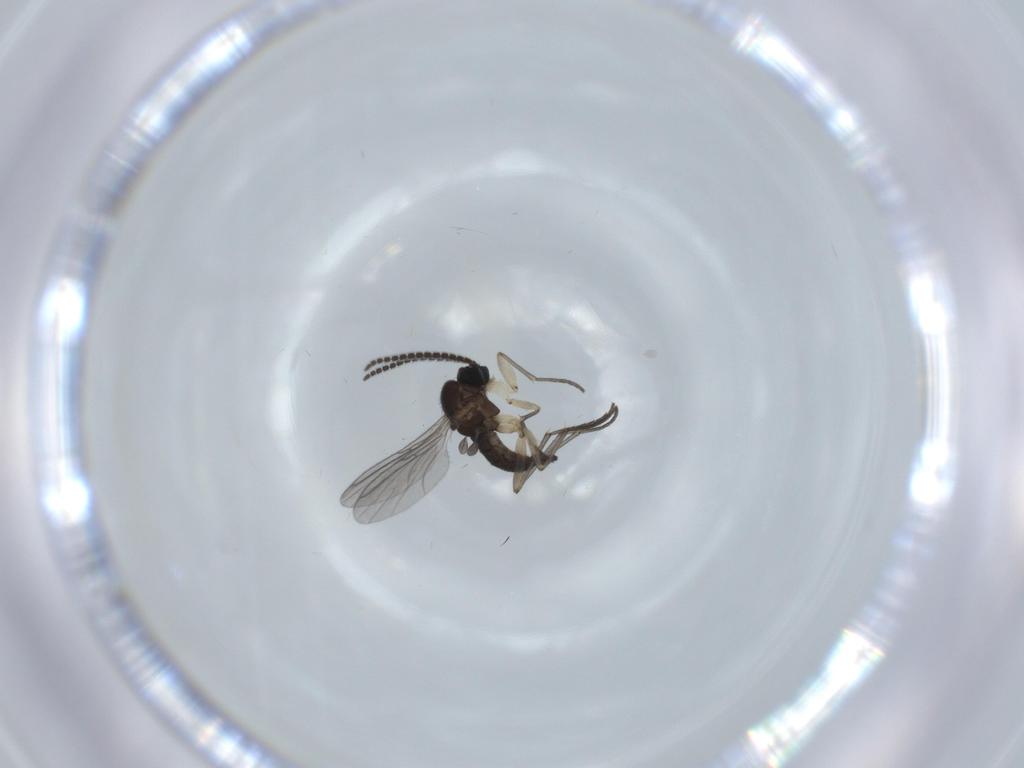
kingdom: Animalia
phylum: Arthropoda
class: Insecta
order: Diptera
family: Sciaridae
